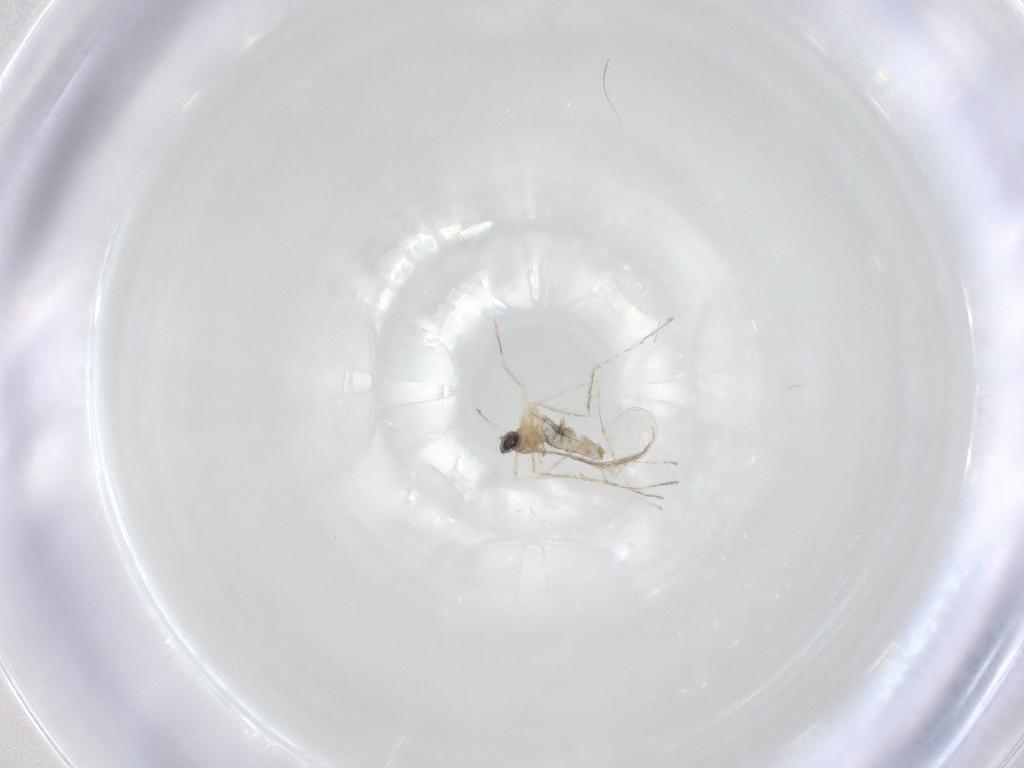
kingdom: Animalia
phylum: Arthropoda
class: Insecta
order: Diptera
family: Cecidomyiidae
